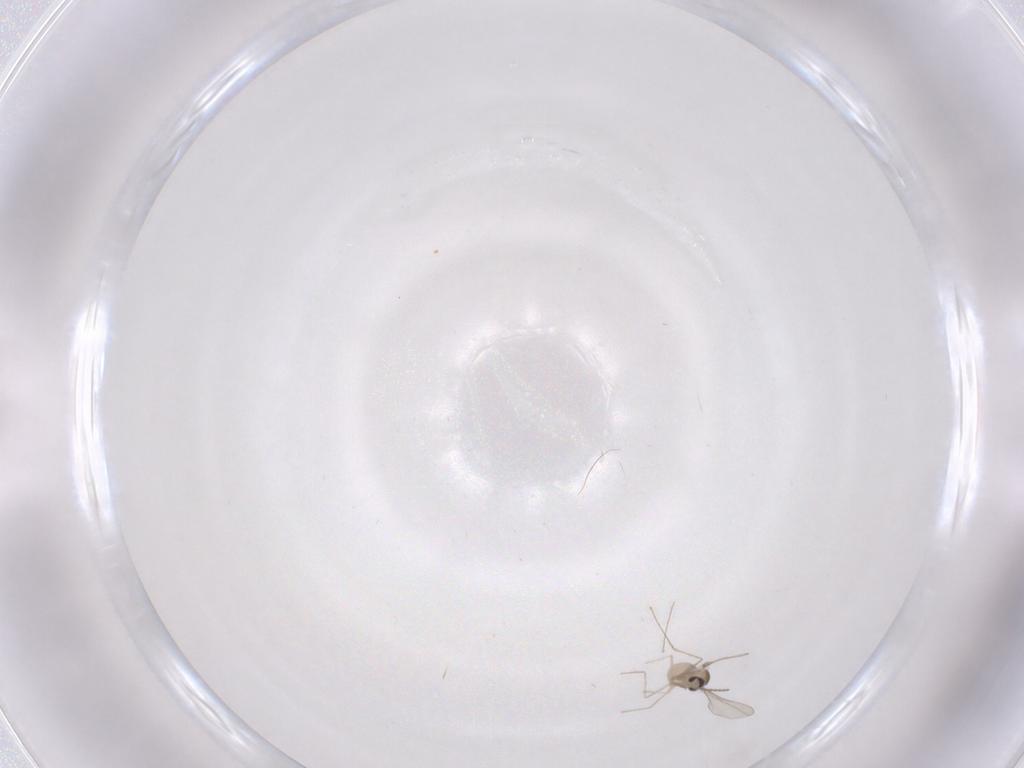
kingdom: Animalia
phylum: Arthropoda
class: Insecta
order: Diptera
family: Cecidomyiidae
